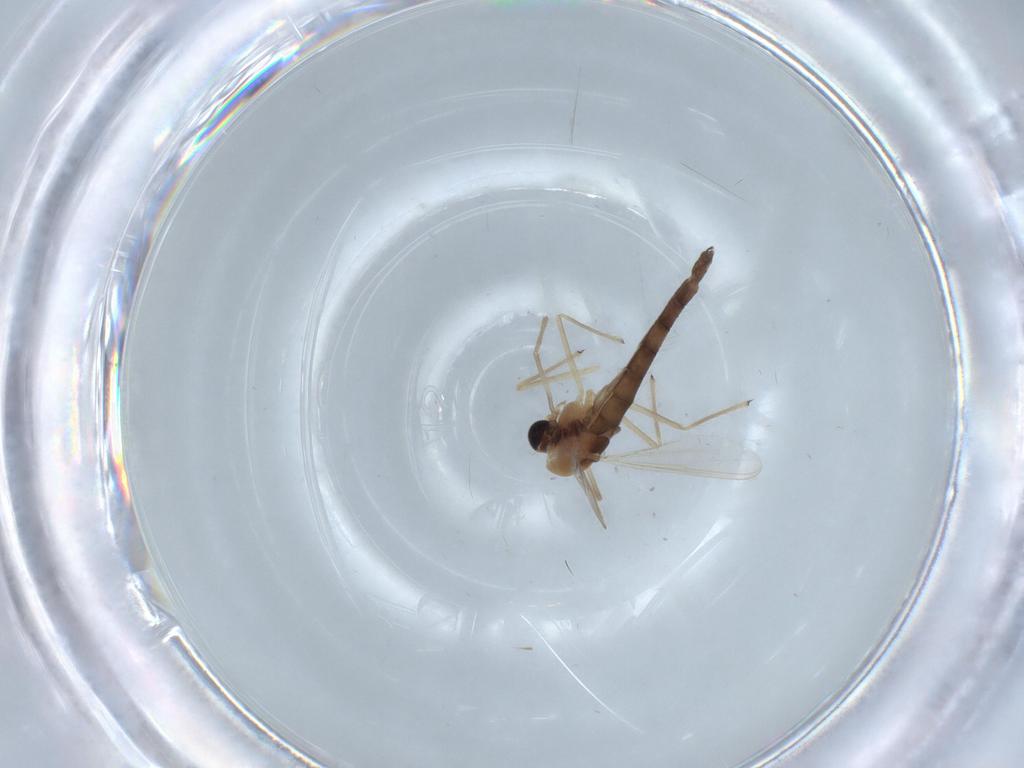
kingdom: Animalia
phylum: Arthropoda
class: Insecta
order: Diptera
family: Chironomidae
